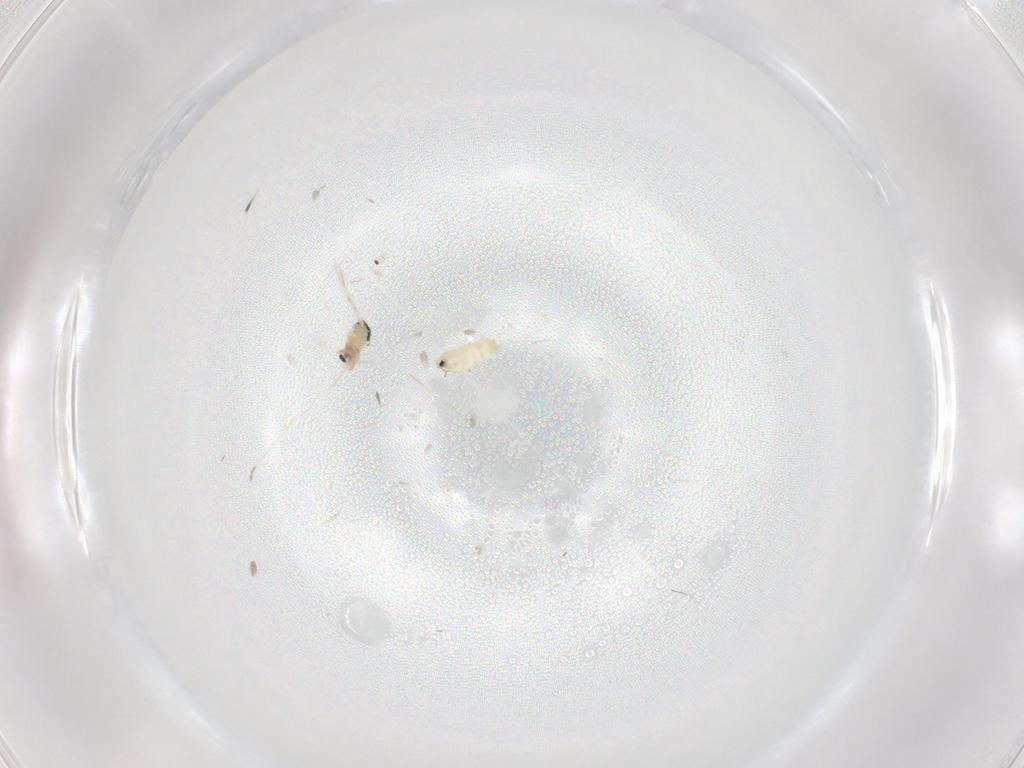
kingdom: Animalia
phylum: Arthropoda
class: Insecta
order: Diptera
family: Cecidomyiidae
